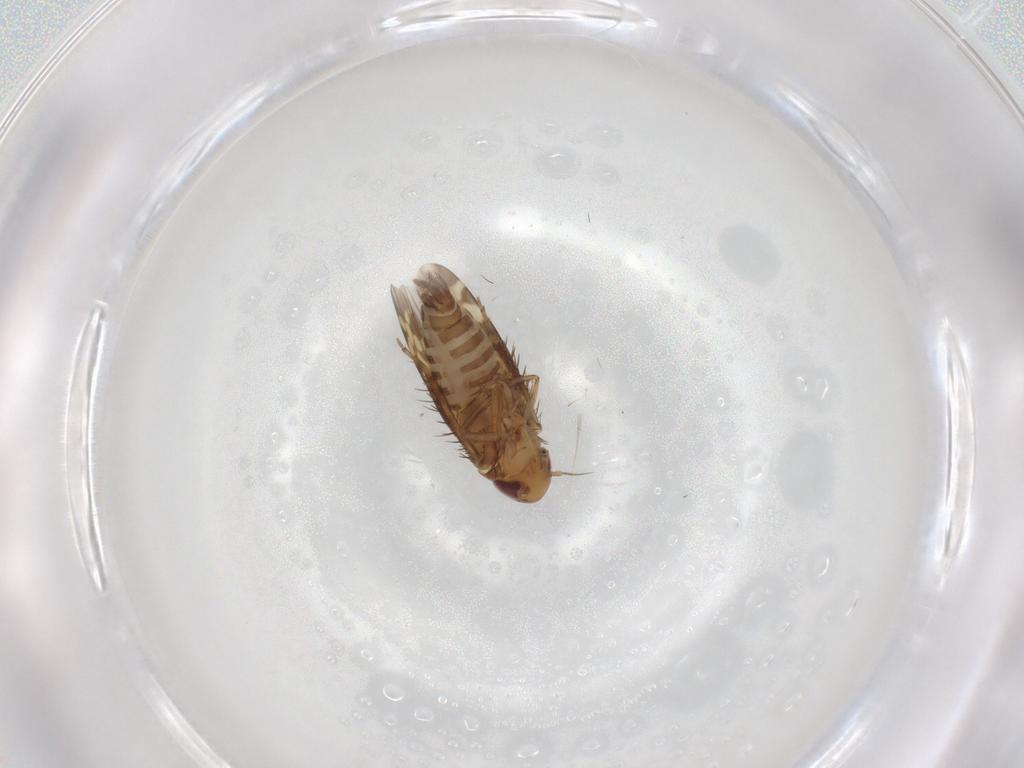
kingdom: Animalia
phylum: Arthropoda
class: Insecta
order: Hemiptera
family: Cicadellidae
